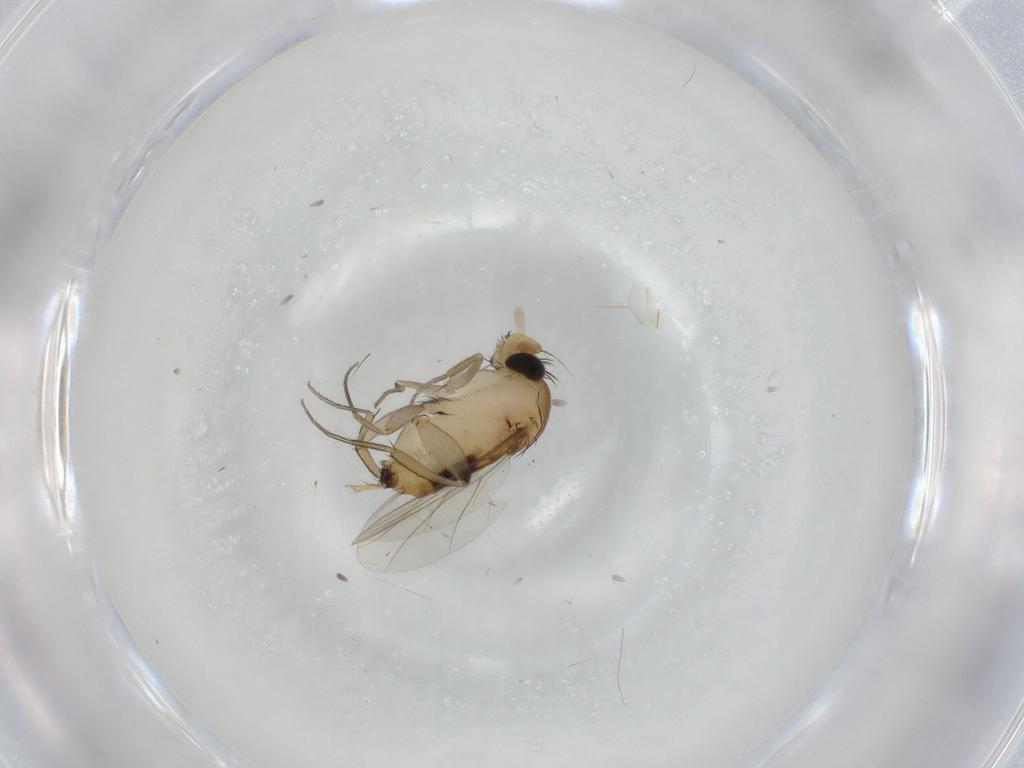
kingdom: Animalia
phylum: Arthropoda
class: Insecta
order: Diptera
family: Phoridae
